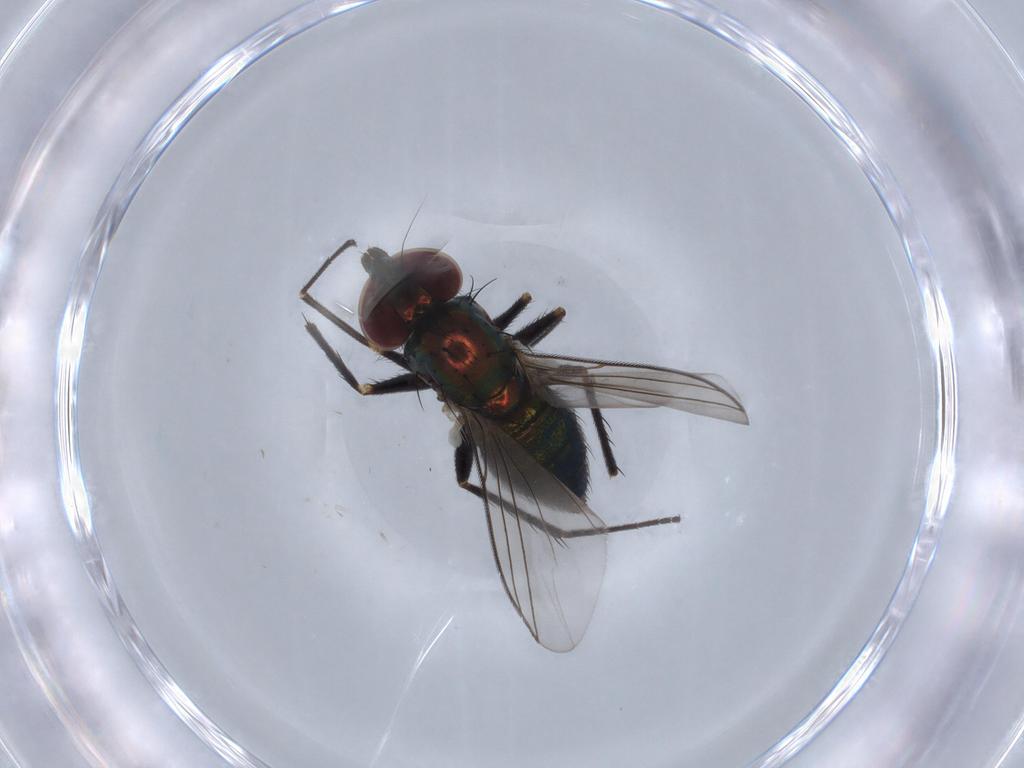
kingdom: Animalia
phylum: Arthropoda
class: Insecta
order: Diptera
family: Dolichopodidae
